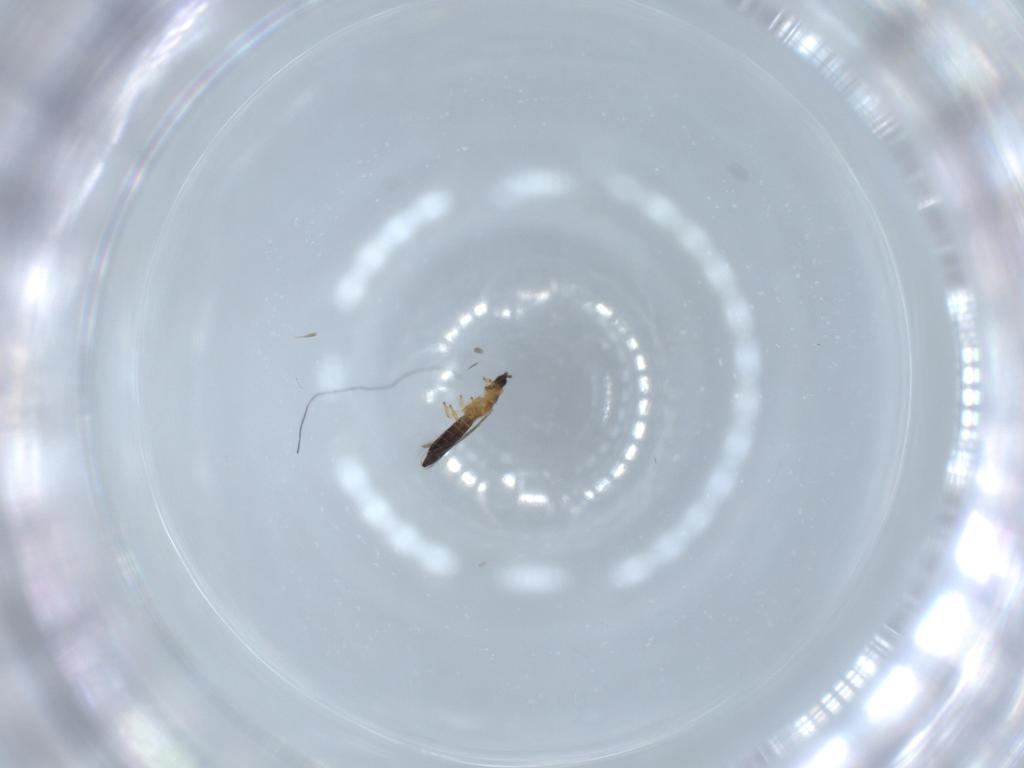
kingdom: Animalia
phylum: Arthropoda
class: Insecta
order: Thysanoptera
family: Thripidae
